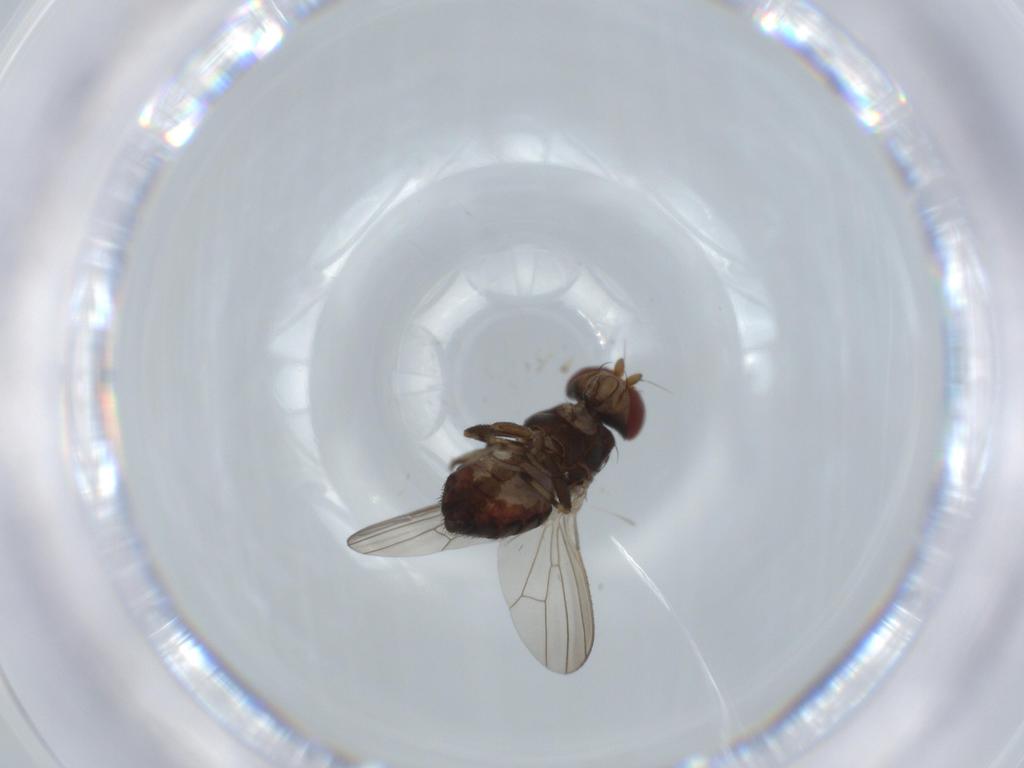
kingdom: Animalia
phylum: Arthropoda
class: Insecta
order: Diptera
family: Heleomyzidae
